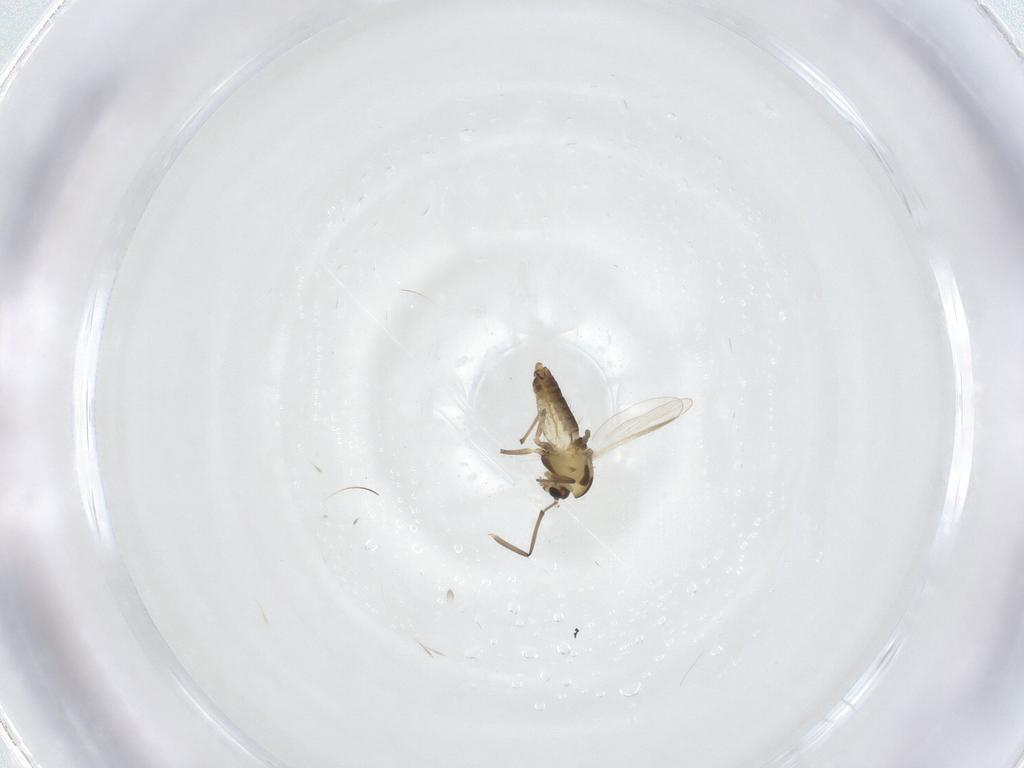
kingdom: Animalia
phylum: Arthropoda
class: Insecta
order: Diptera
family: Chironomidae
